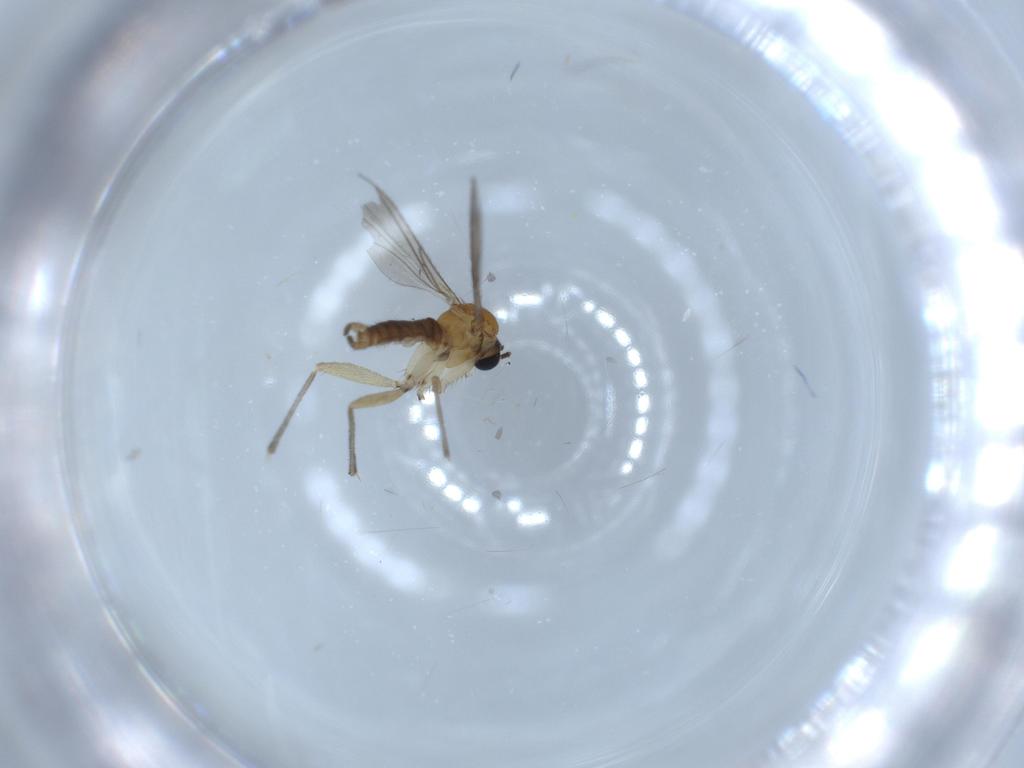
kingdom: Animalia
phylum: Arthropoda
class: Insecta
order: Diptera
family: Sciaridae
